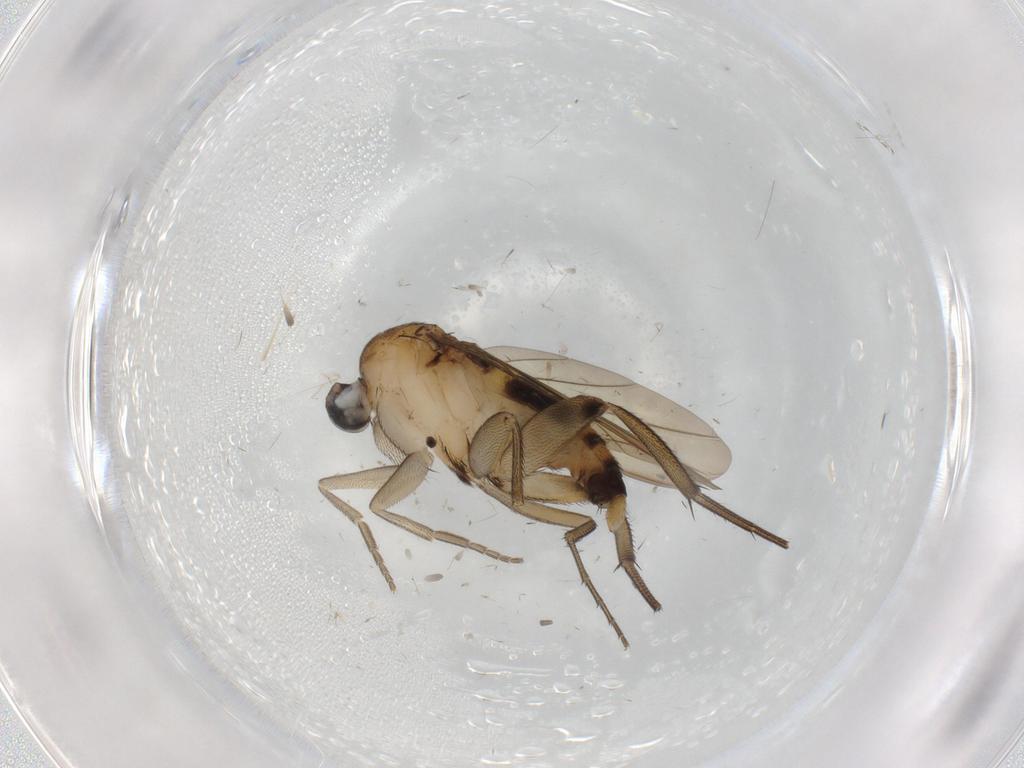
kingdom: Animalia
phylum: Arthropoda
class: Insecta
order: Diptera
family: Phoridae
